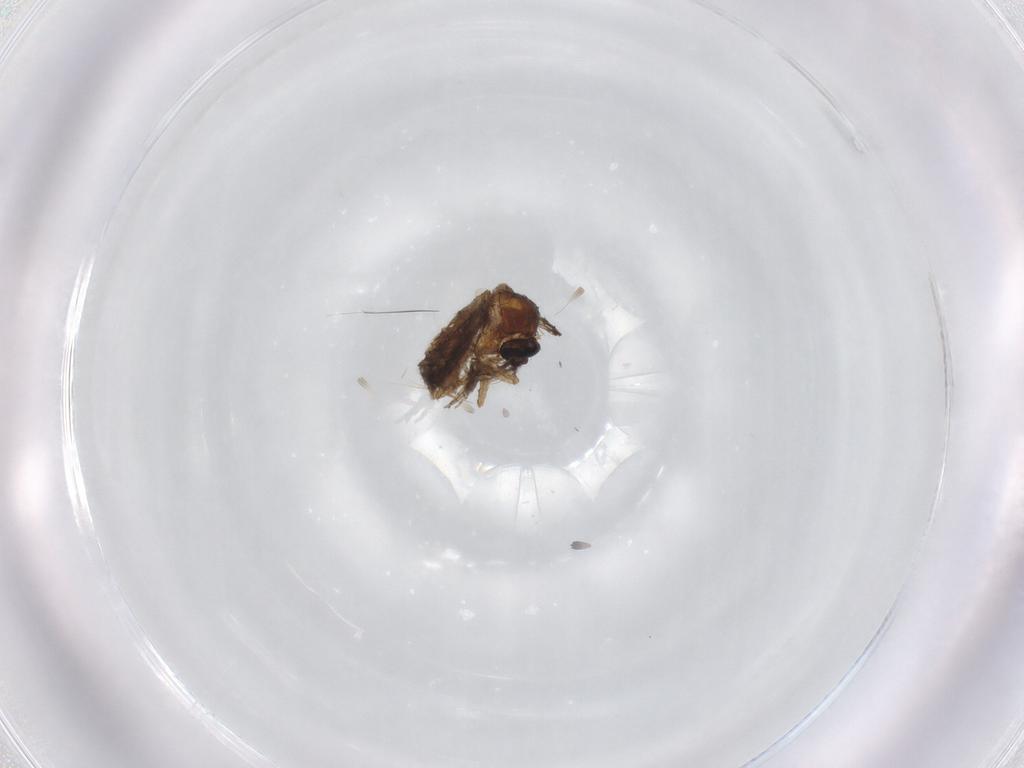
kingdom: Animalia
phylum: Arthropoda
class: Insecta
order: Diptera
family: Ceratopogonidae
